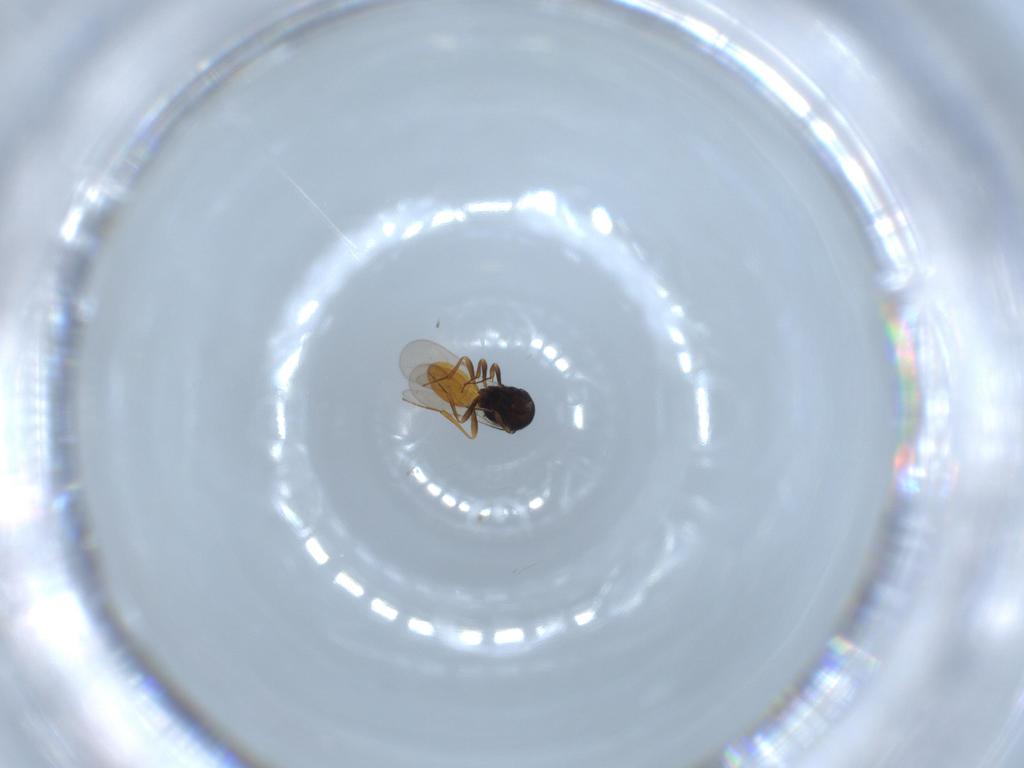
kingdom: Animalia
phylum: Arthropoda
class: Insecta
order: Hymenoptera
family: Scelionidae
